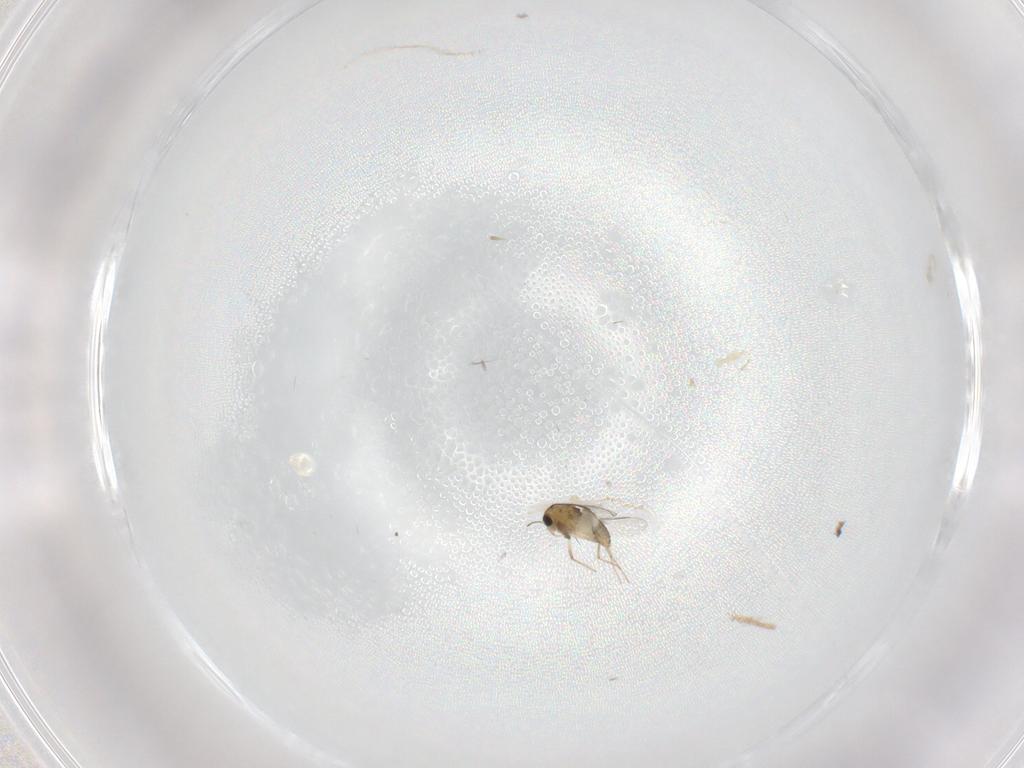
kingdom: Animalia
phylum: Arthropoda
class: Insecta
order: Diptera
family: Chironomidae
